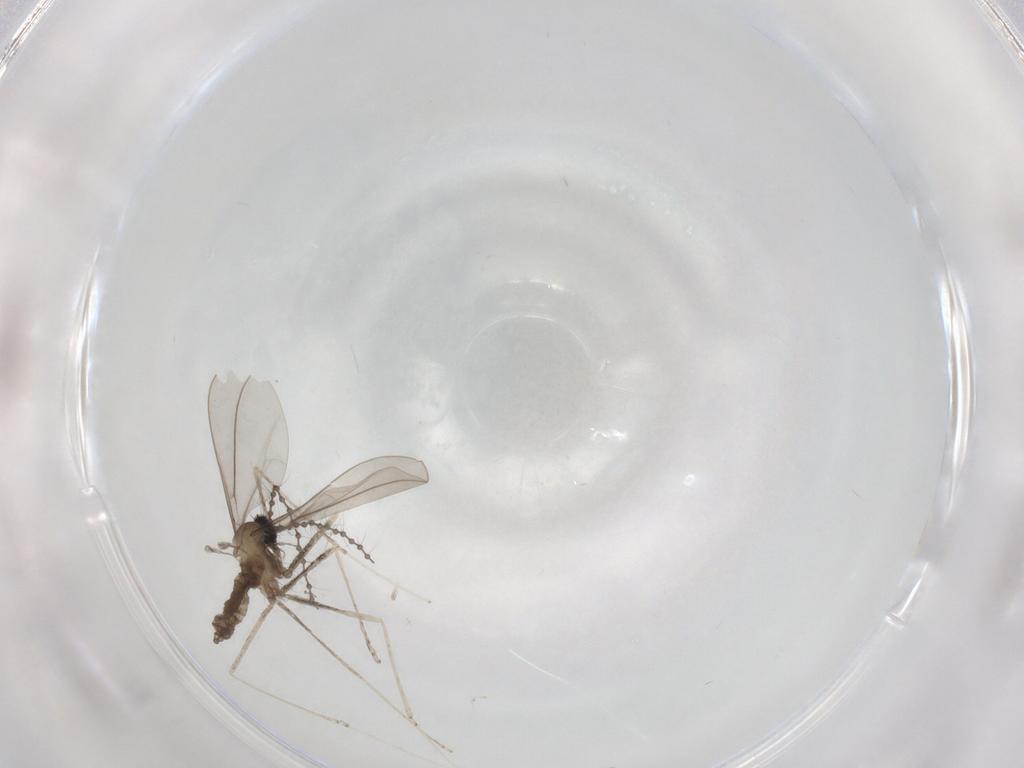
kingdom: Animalia
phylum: Arthropoda
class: Insecta
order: Diptera
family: Cecidomyiidae
